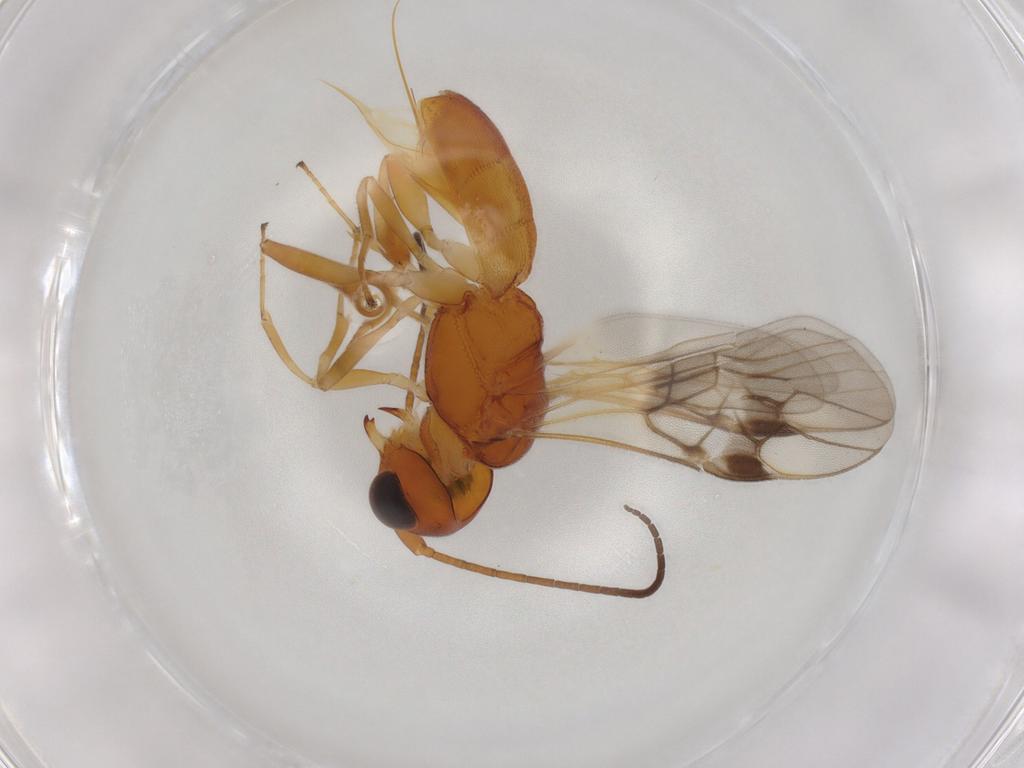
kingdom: Animalia
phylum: Arthropoda
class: Insecta
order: Hymenoptera
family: Braconidae
